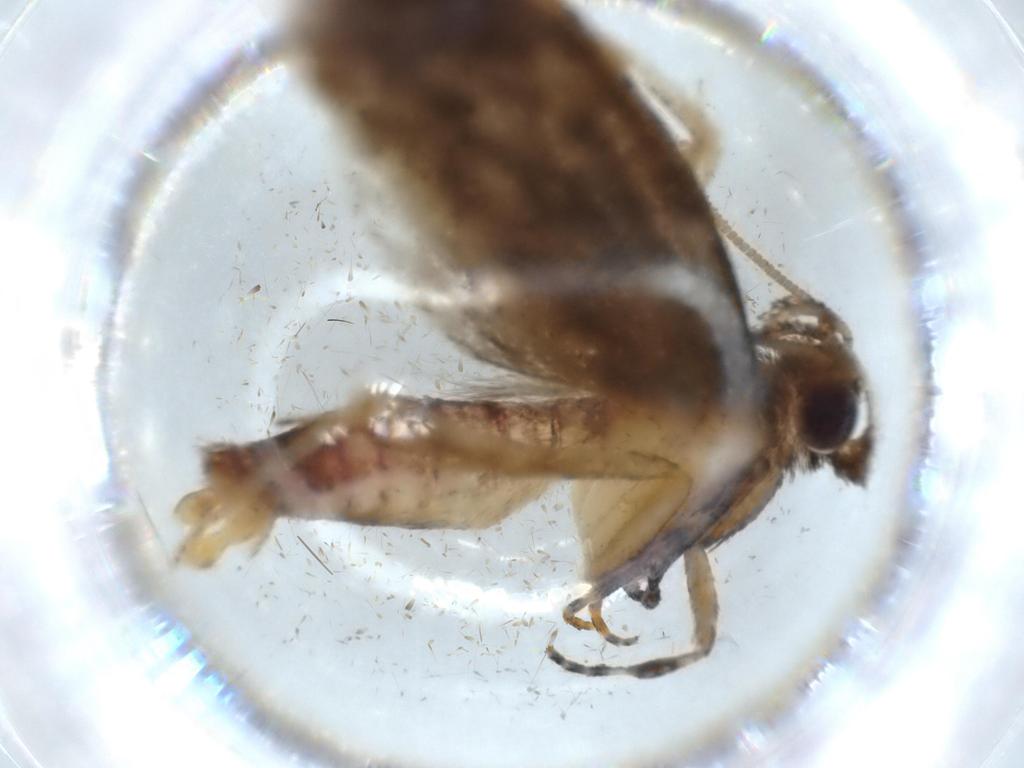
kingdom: Animalia
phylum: Arthropoda
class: Insecta
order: Lepidoptera
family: Tineidae
